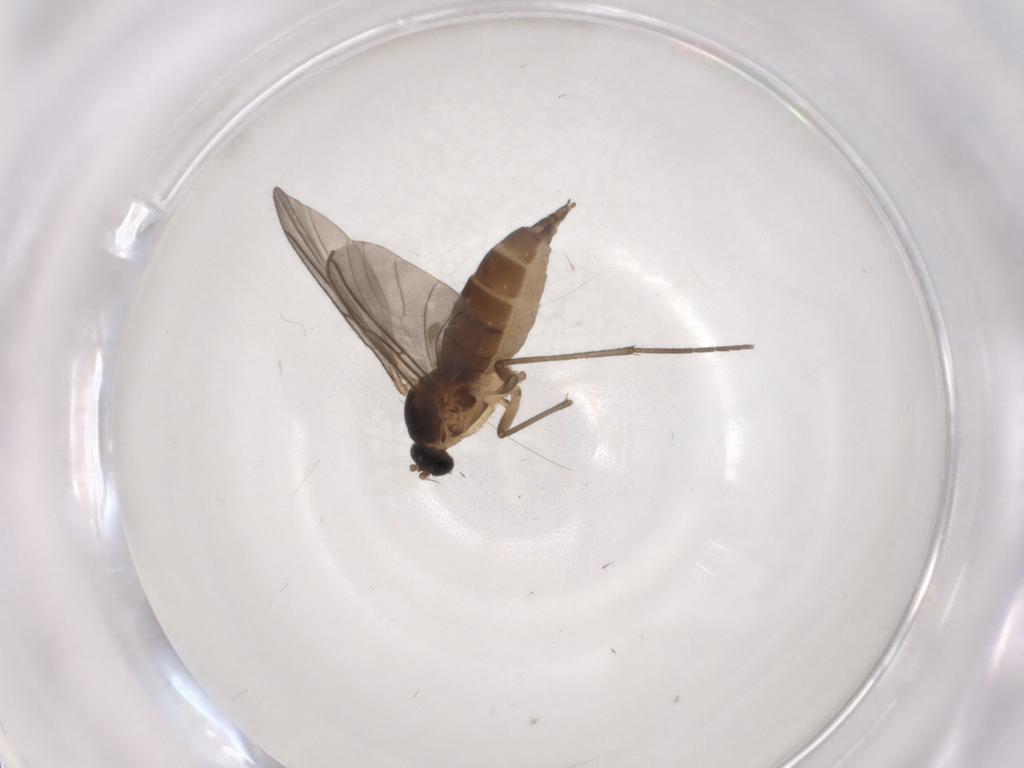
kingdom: Animalia
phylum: Arthropoda
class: Insecta
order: Diptera
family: Sciaridae
